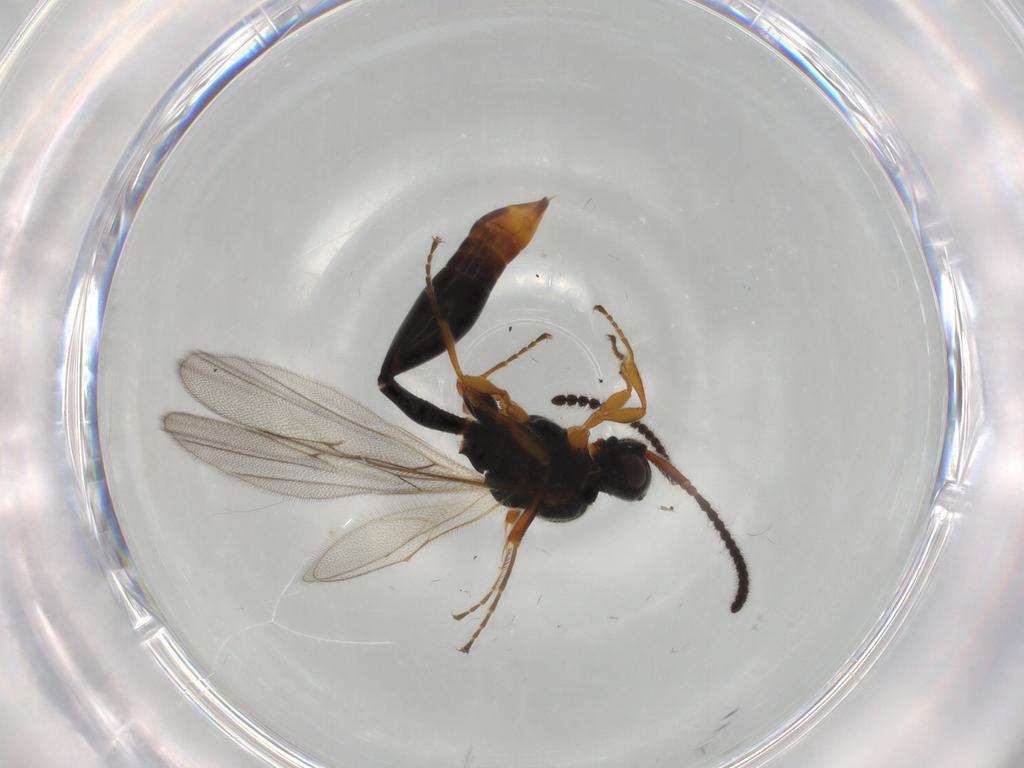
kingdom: Animalia
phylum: Arthropoda
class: Insecta
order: Hymenoptera
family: Diapriidae
